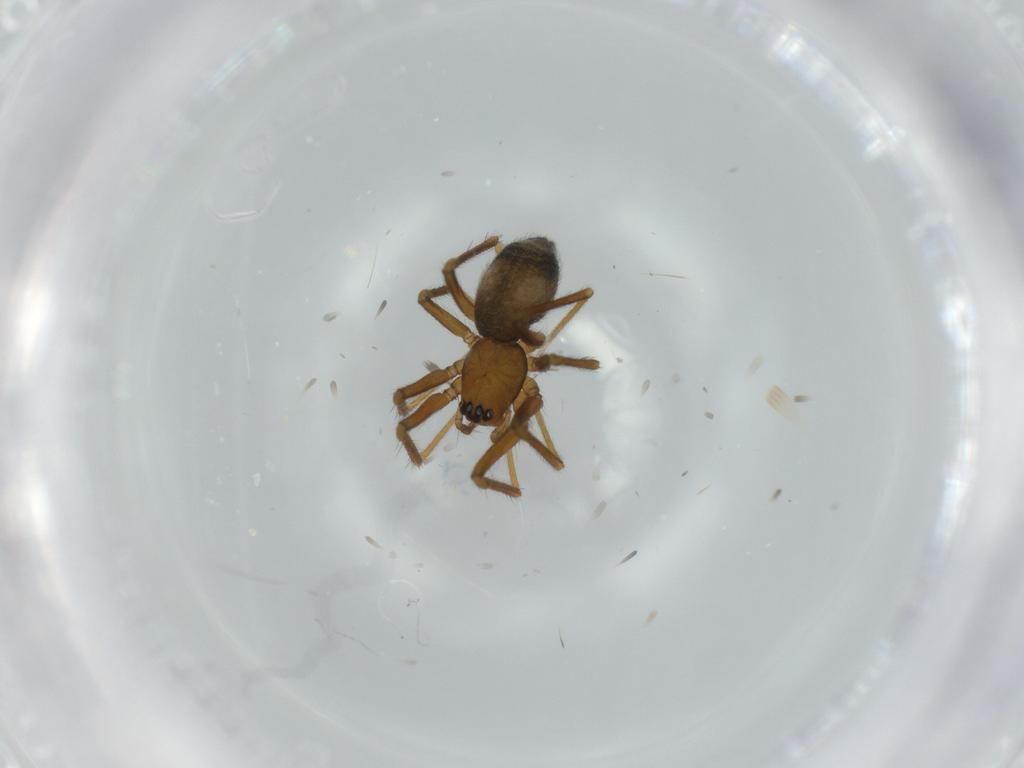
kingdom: Animalia
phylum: Arthropoda
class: Arachnida
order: Araneae
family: Linyphiidae
